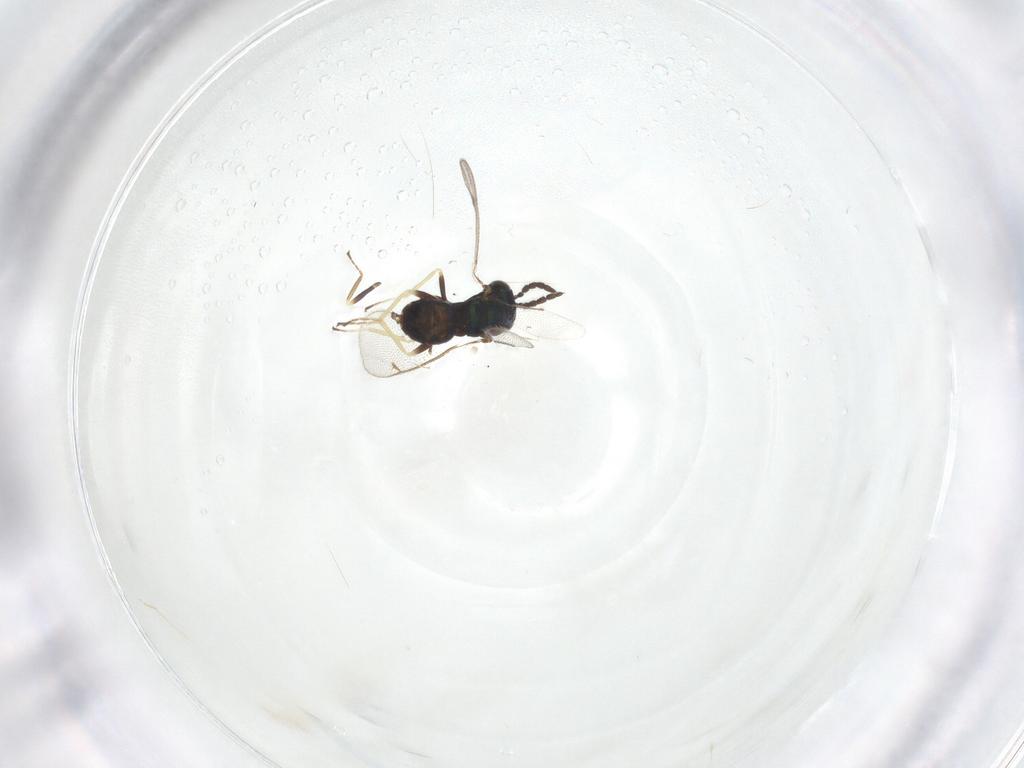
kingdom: Animalia
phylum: Arthropoda
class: Insecta
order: Hymenoptera
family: Eulophidae
